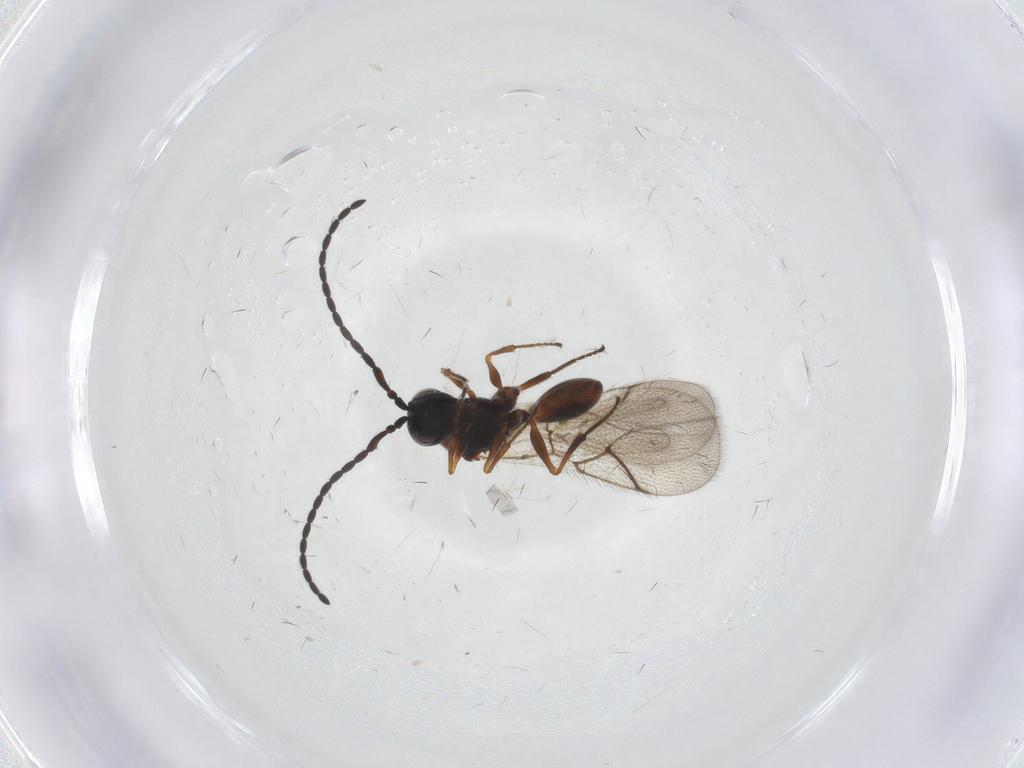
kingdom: Animalia
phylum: Arthropoda
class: Insecta
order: Hymenoptera
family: Figitidae
